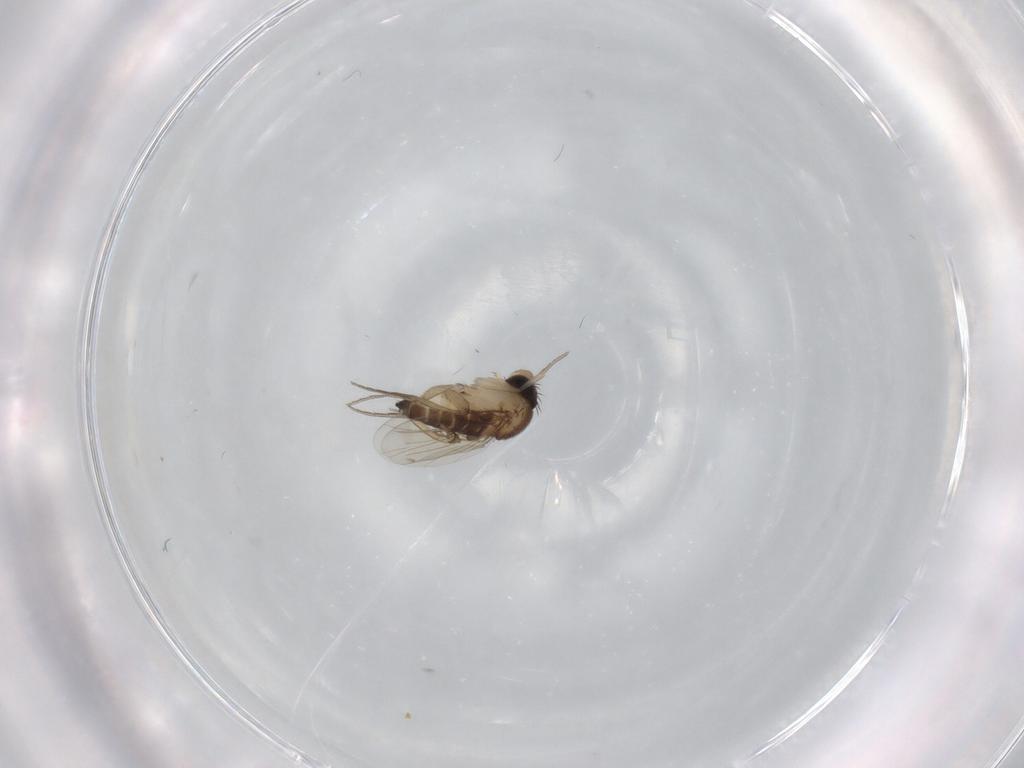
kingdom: Animalia
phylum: Arthropoda
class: Insecta
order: Diptera
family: Phoridae
